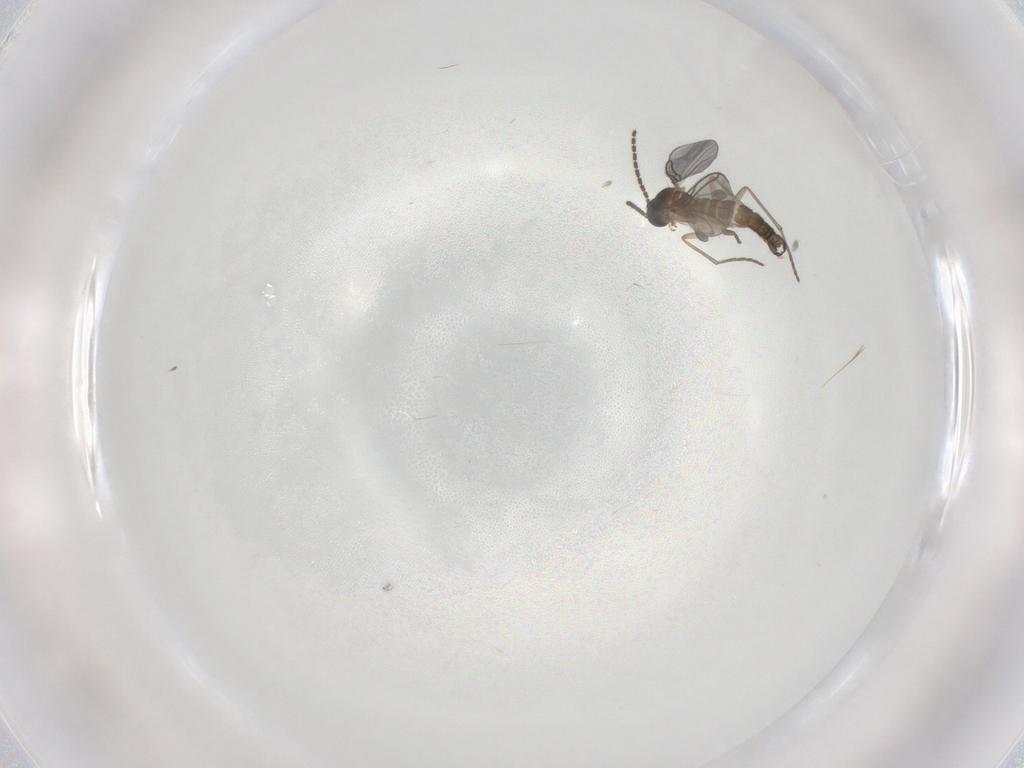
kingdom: Animalia
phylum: Arthropoda
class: Insecta
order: Diptera
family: Sciaridae
